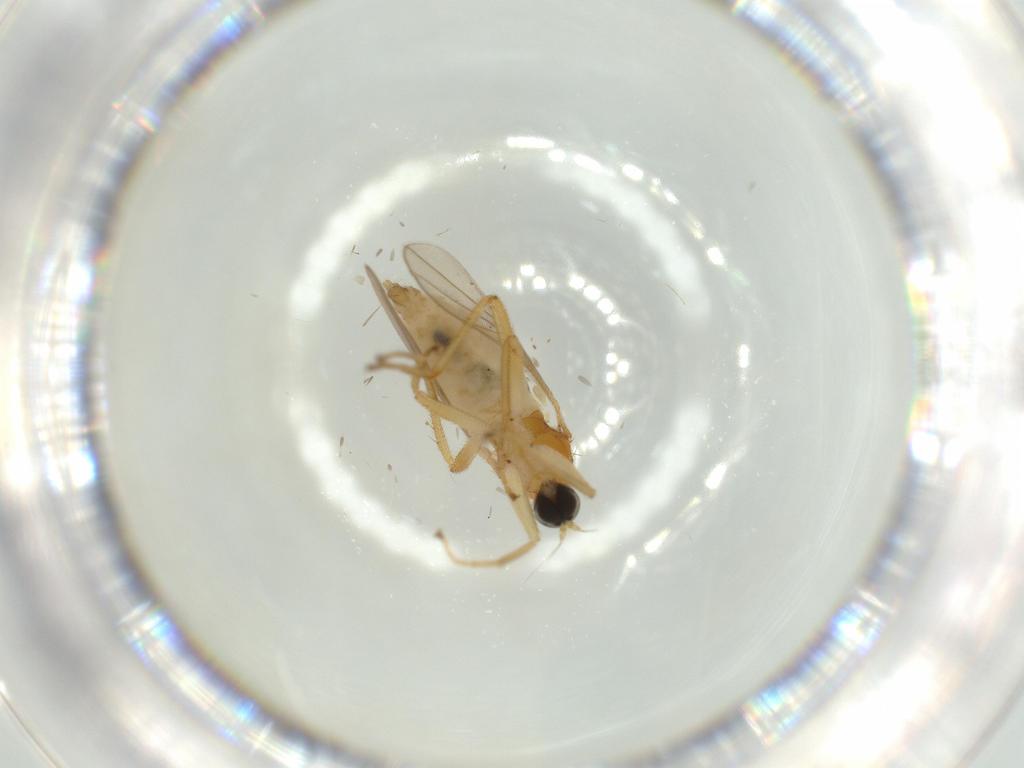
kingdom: Animalia
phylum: Arthropoda
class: Insecta
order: Diptera
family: Hybotidae
